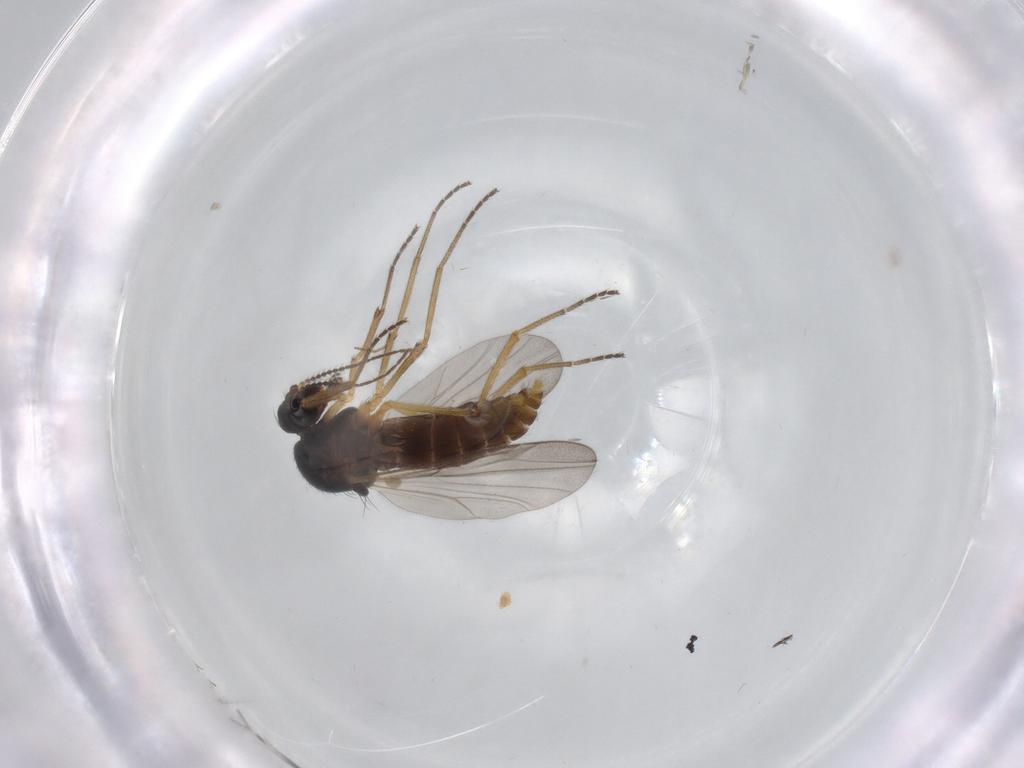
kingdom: Animalia
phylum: Arthropoda
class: Insecta
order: Diptera
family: Ceratopogonidae
